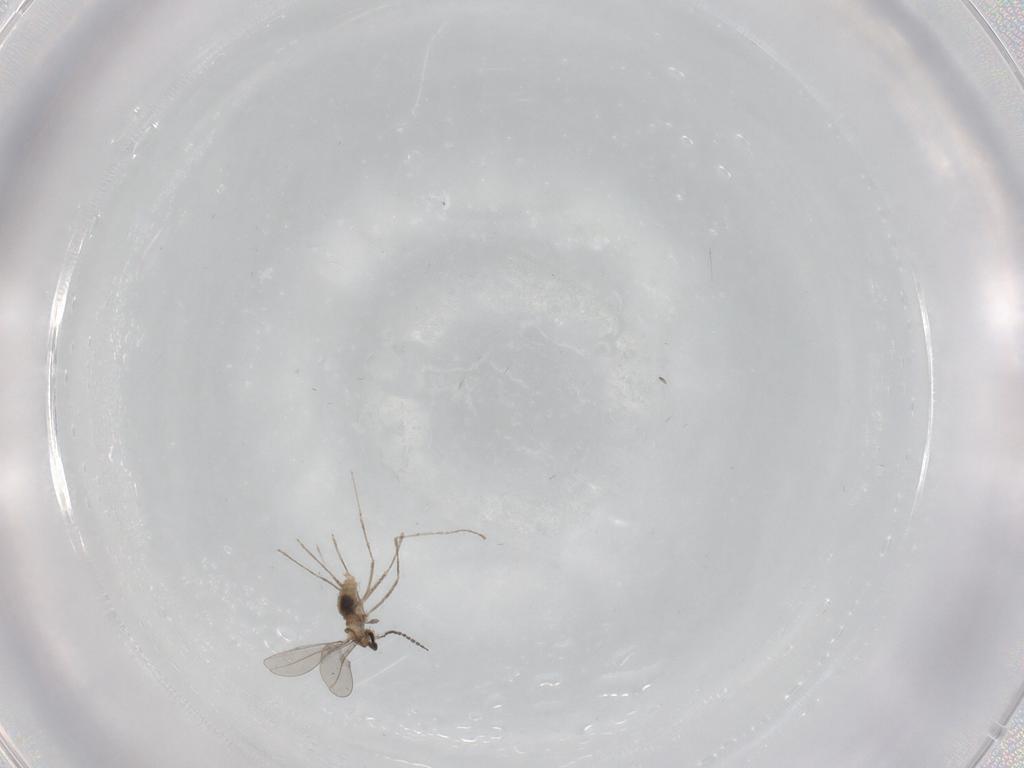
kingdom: Animalia
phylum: Arthropoda
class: Insecta
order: Diptera
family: Cecidomyiidae
